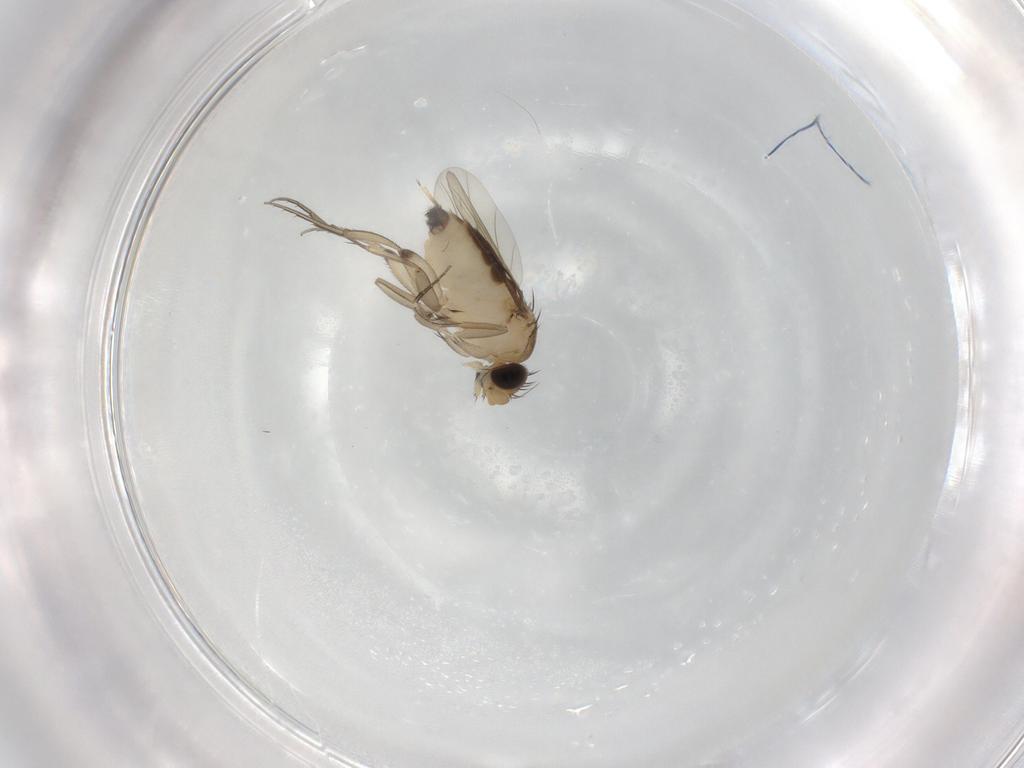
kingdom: Animalia
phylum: Arthropoda
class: Insecta
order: Diptera
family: Phoridae
